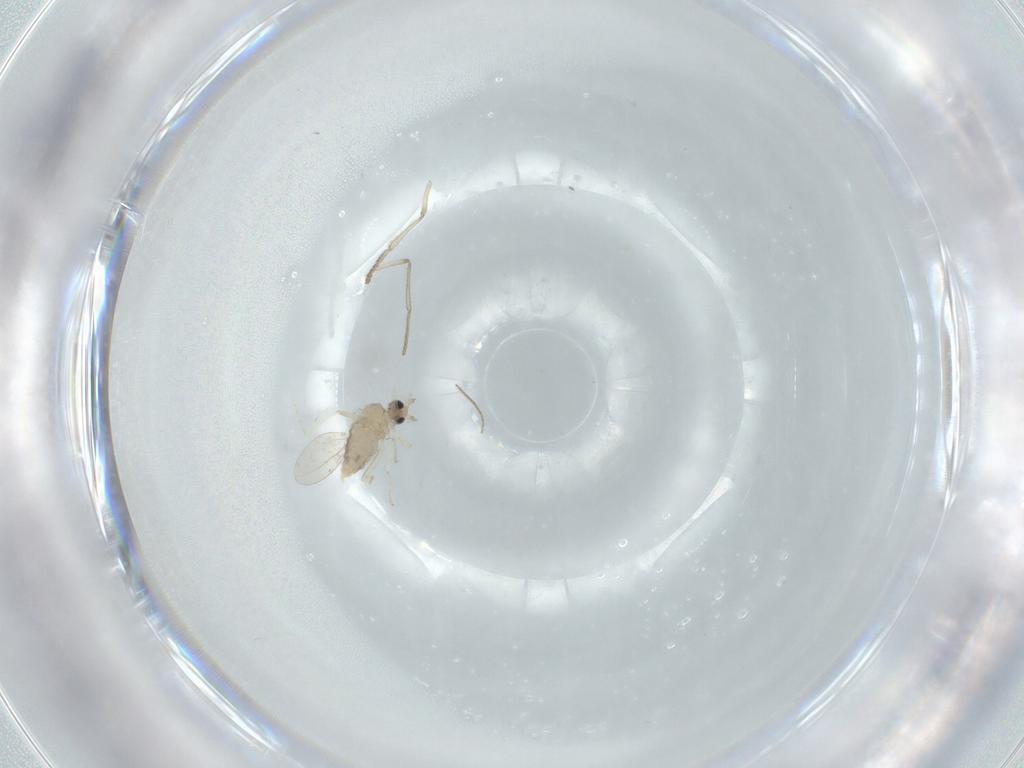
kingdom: Animalia
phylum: Arthropoda
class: Insecta
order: Diptera
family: Cecidomyiidae
